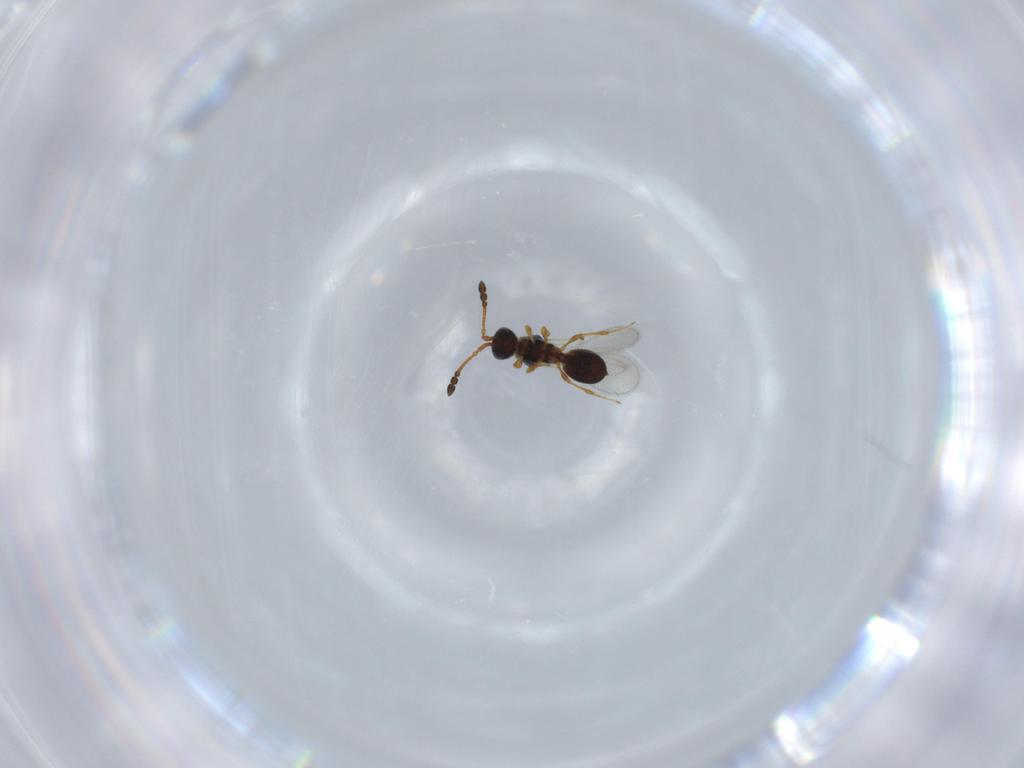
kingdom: Animalia
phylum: Arthropoda
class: Insecta
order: Hymenoptera
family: Diapriidae
